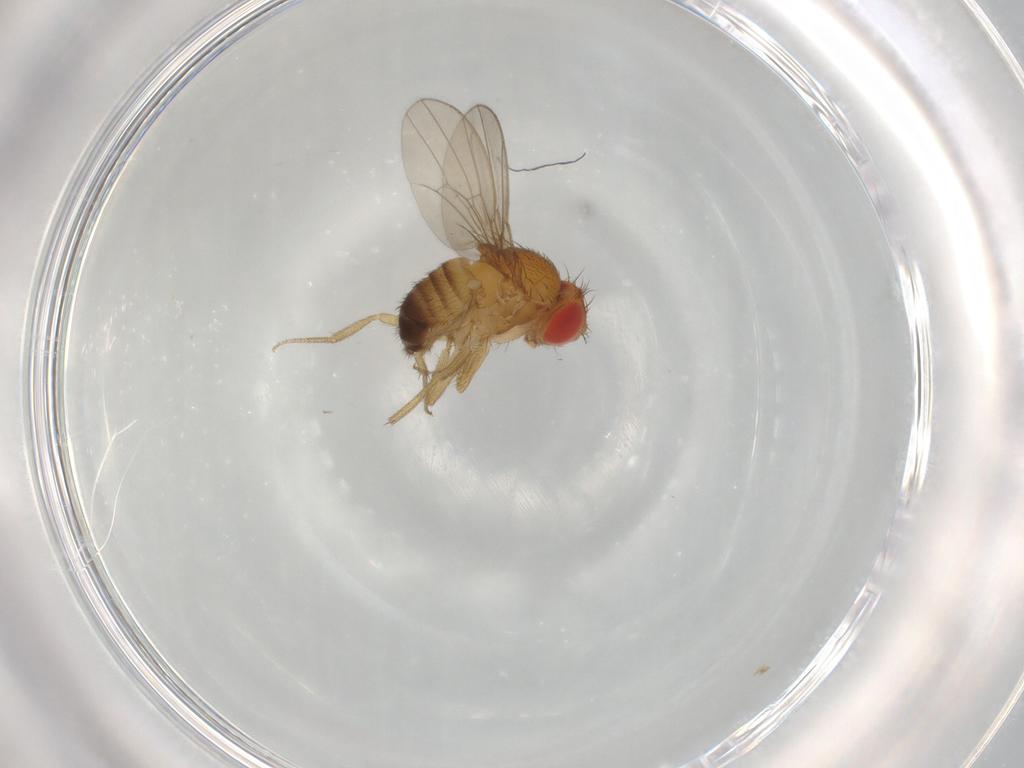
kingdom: Animalia
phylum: Arthropoda
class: Insecta
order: Diptera
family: Drosophilidae
